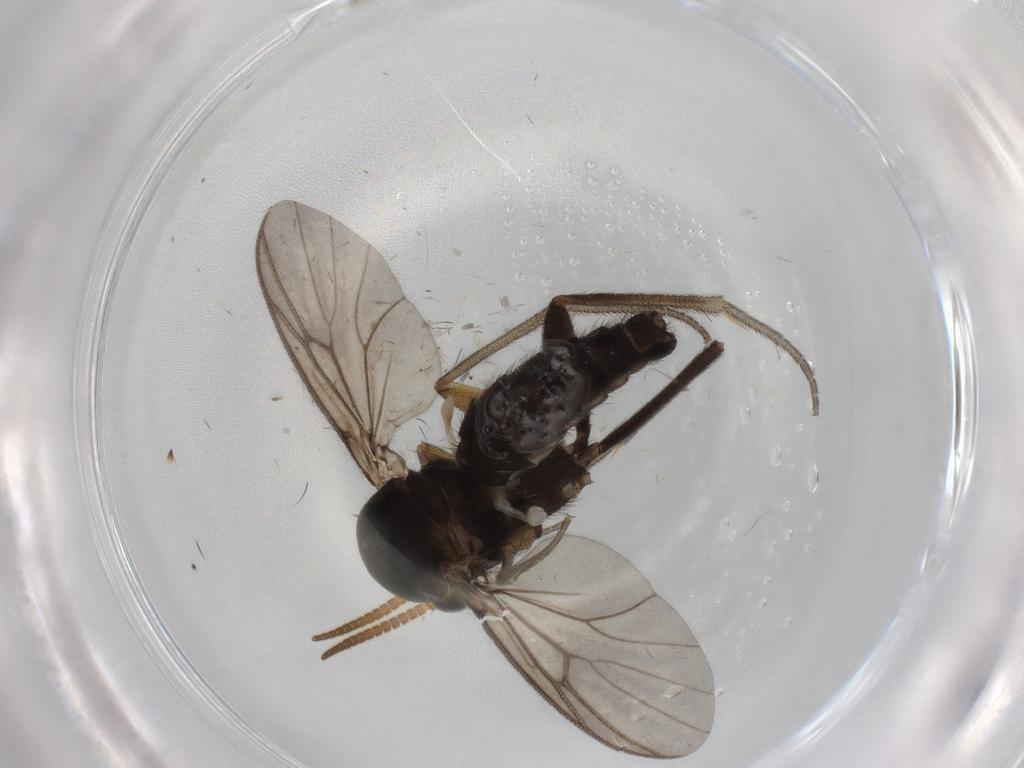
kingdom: Animalia
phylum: Arthropoda
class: Insecta
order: Diptera
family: Mycetophilidae
